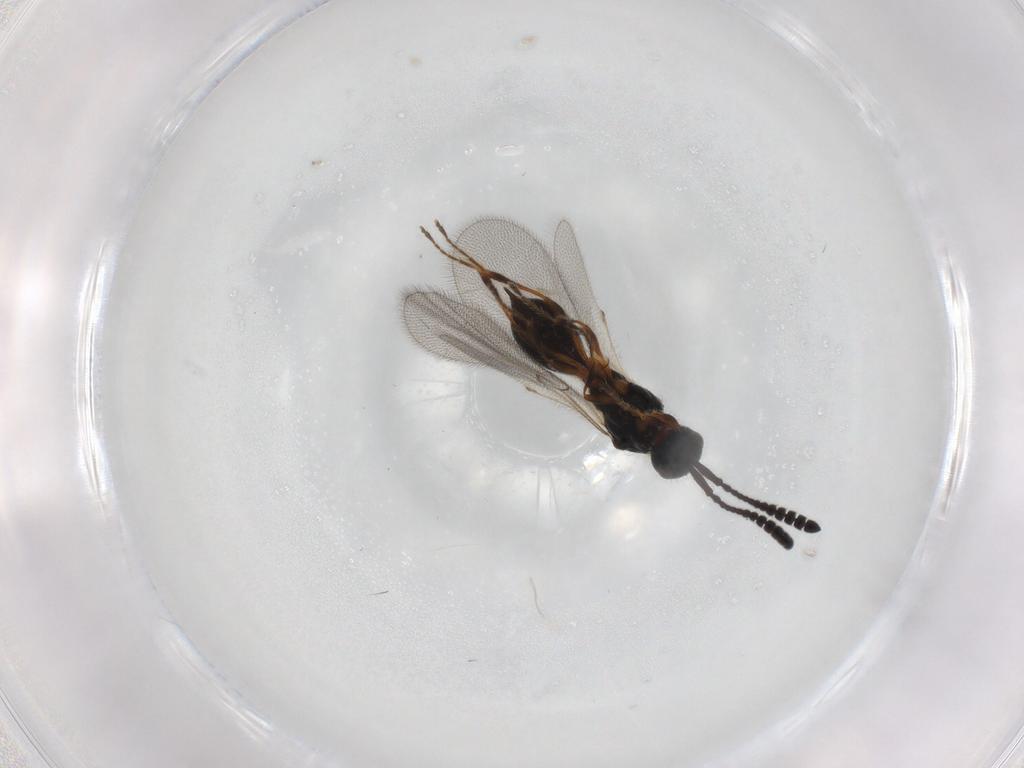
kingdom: Animalia
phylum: Arthropoda
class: Insecta
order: Hymenoptera
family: Diapriidae
